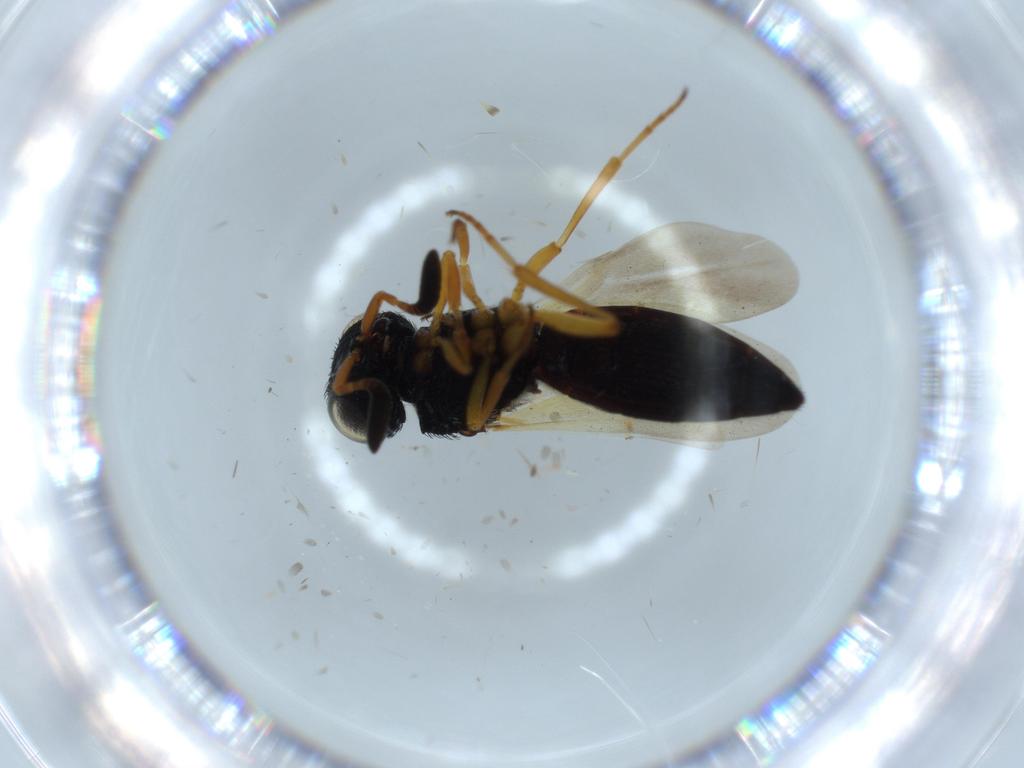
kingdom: Animalia
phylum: Arthropoda
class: Insecta
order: Hymenoptera
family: Scelionidae
